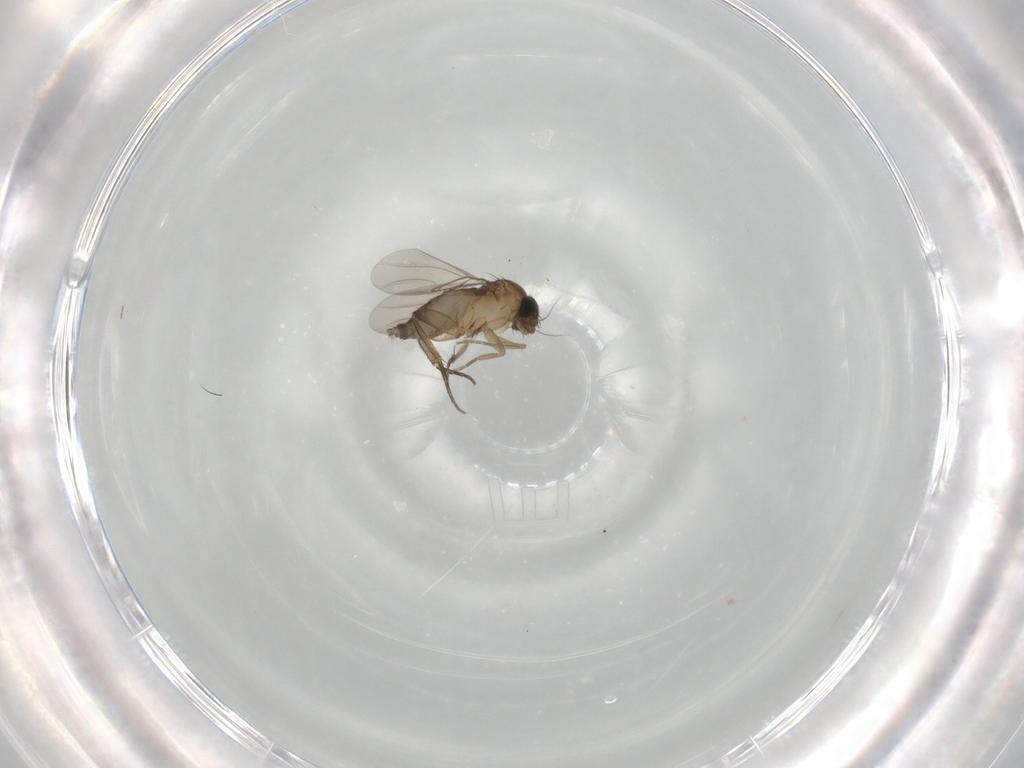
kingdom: Animalia
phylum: Arthropoda
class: Insecta
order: Diptera
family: Phoridae
